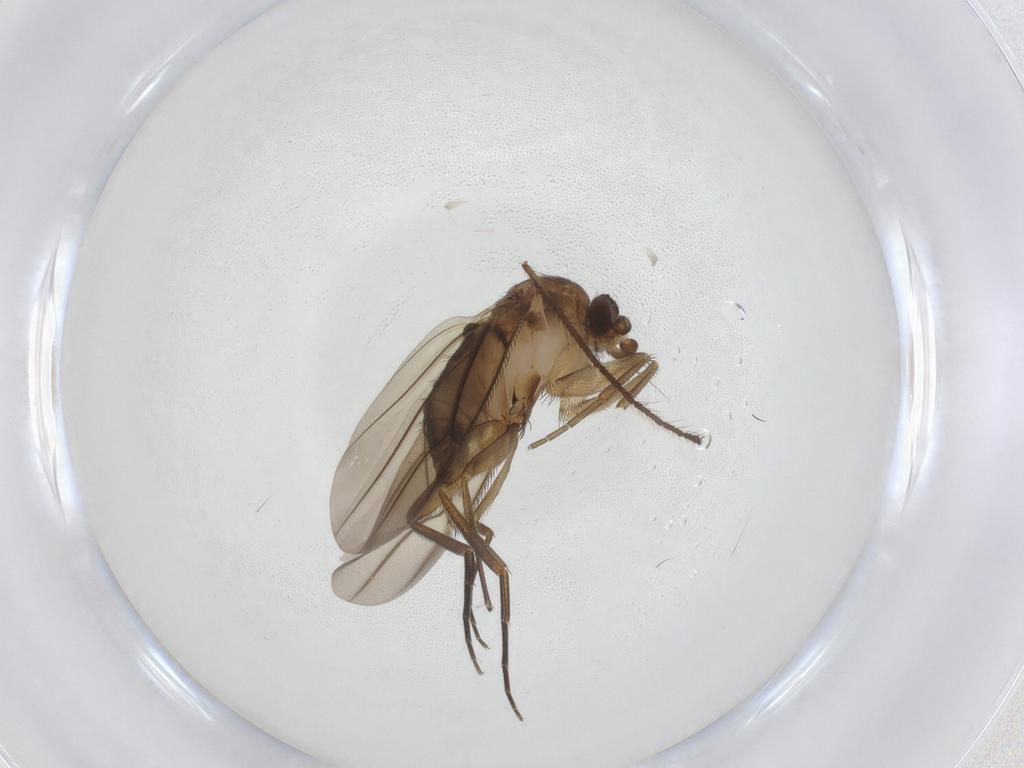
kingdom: Animalia
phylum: Arthropoda
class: Insecta
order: Diptera
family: Phoridae
